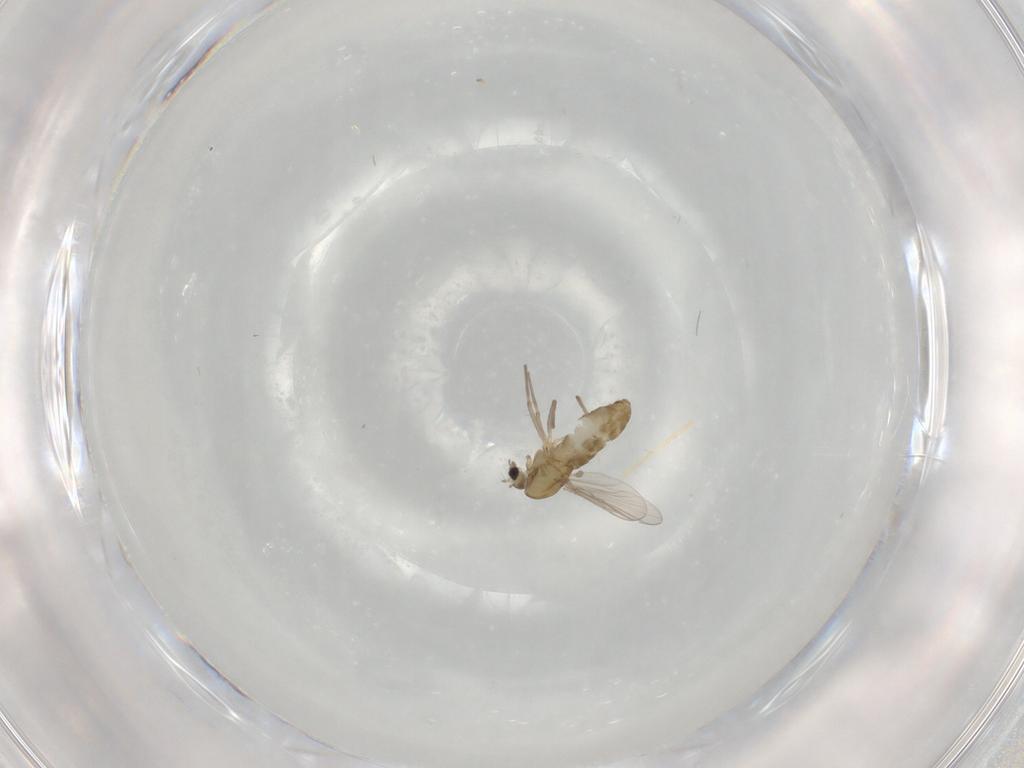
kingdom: Animalia
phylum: Arthropoda
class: Insecta
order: Diptera
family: Chironomidae
